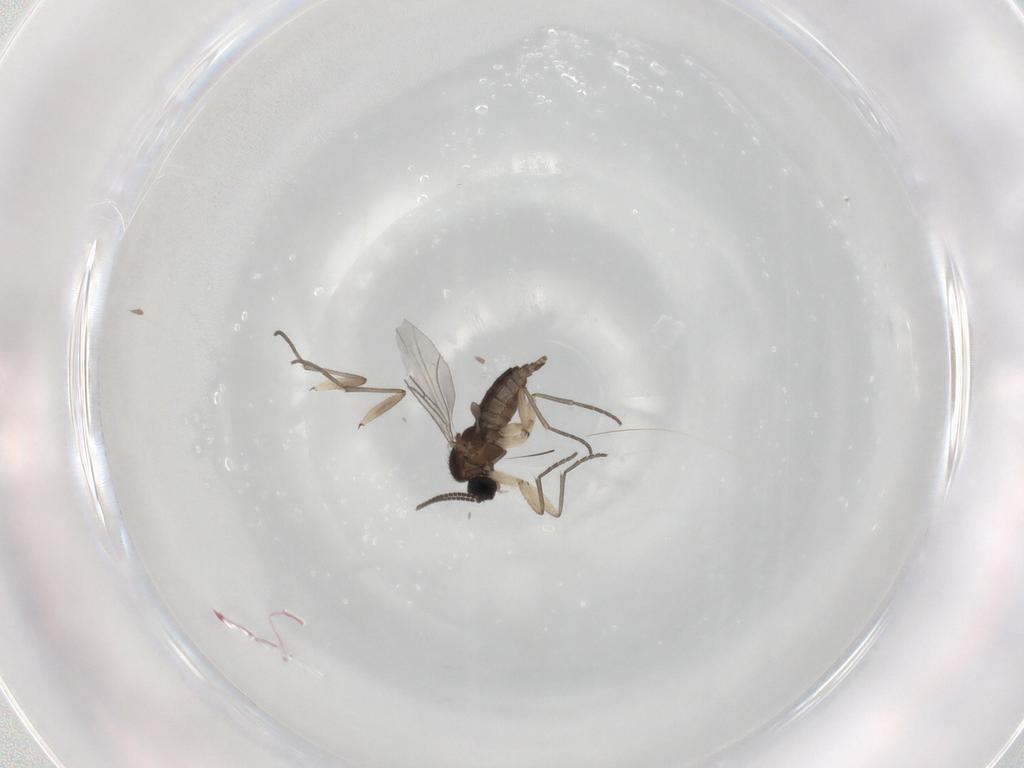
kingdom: Animalia
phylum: Arthropoda
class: Insecta
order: Diptera
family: Sciaridae
